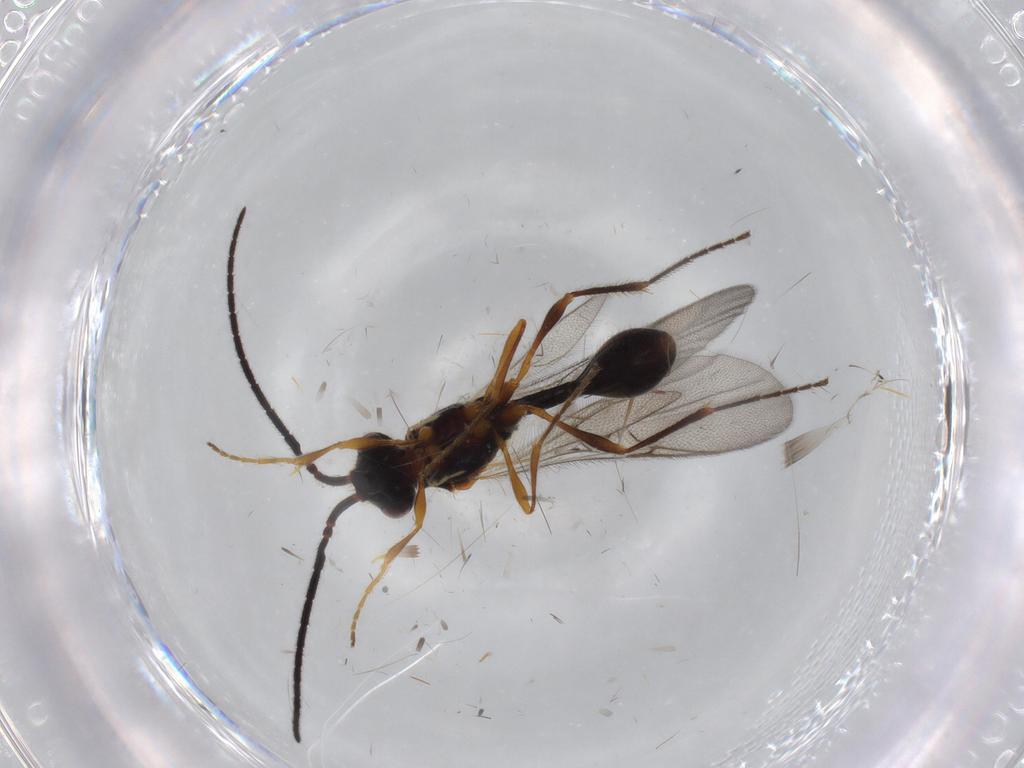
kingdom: Animalia
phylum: Arthropoda
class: Insecta
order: Hymenoptera
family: Diapriidae
